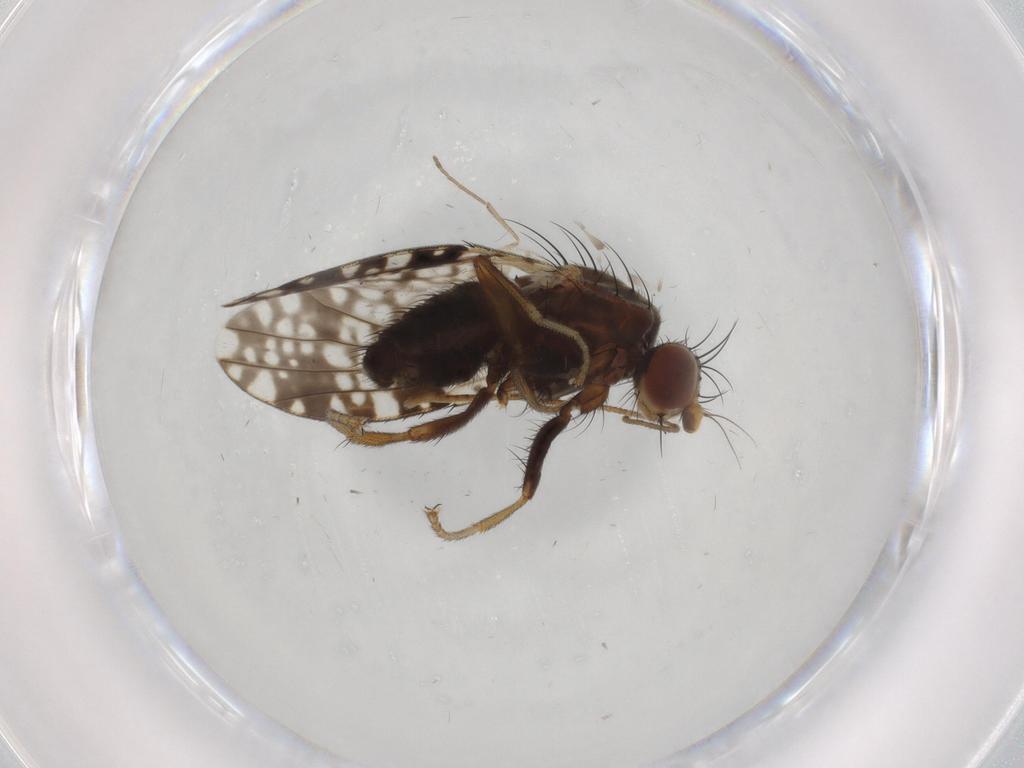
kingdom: Animalia
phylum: Arthropoda
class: Insecta
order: Diptera
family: Tephritidae
